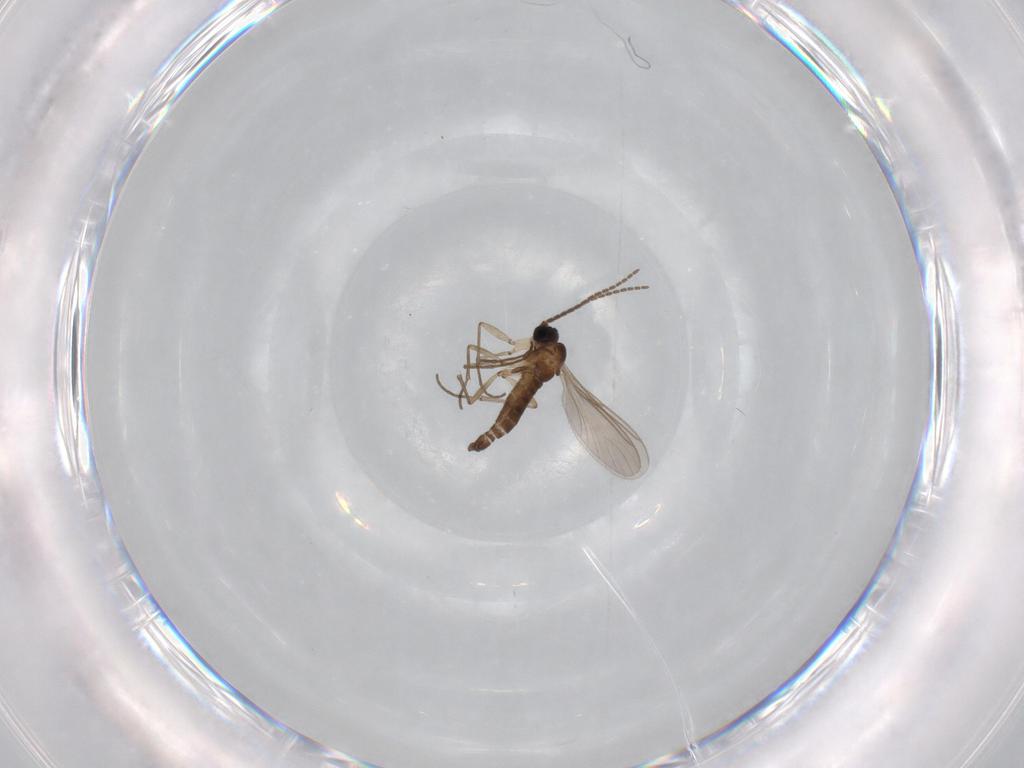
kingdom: Animalia
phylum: Arthropoda
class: Insecta
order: Diptera
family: Sciaridae
